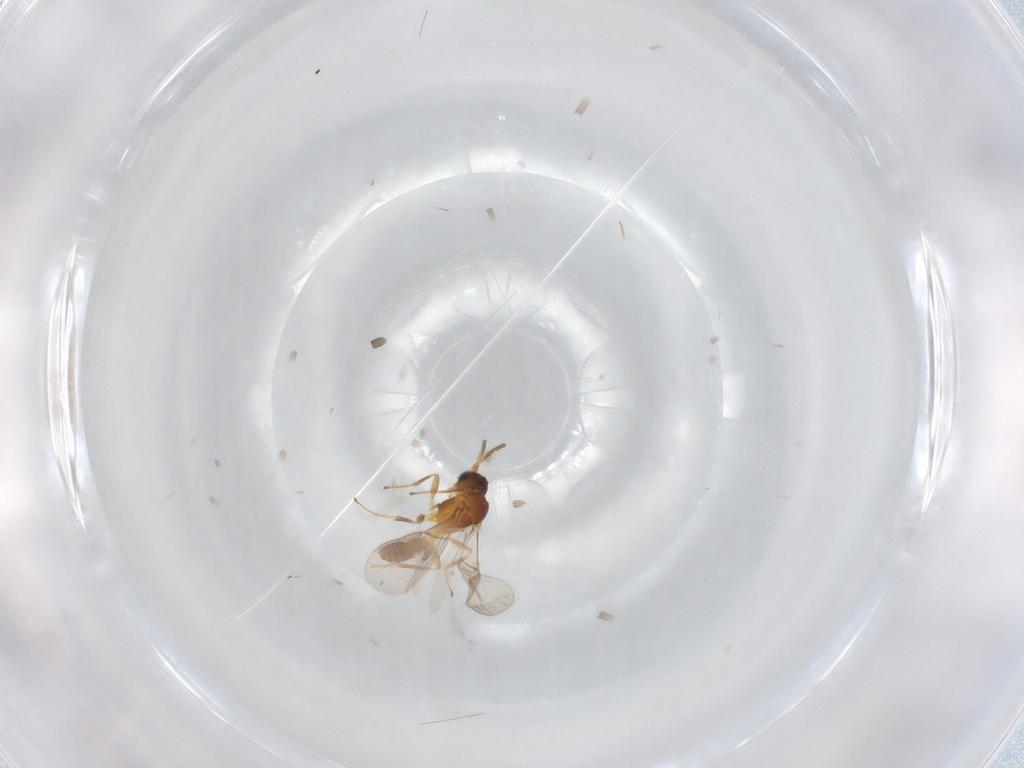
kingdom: Animalia
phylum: Arthropoda
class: Insecta
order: Hymenoptera
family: Braconidae
